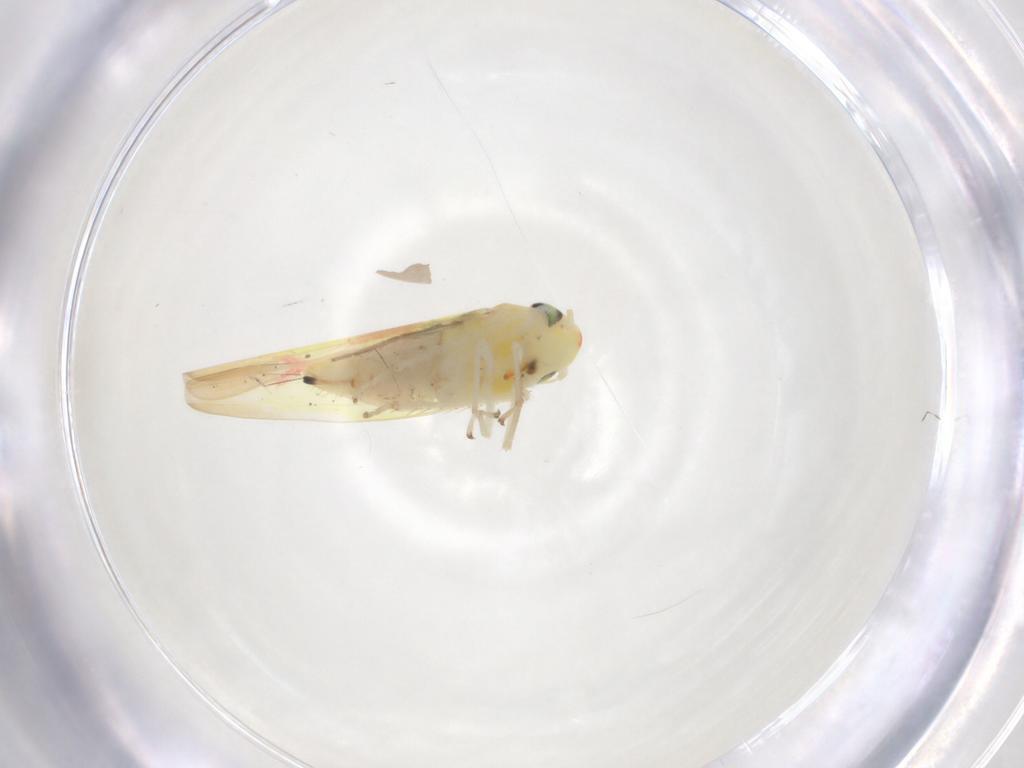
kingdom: Animalia
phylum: Arthropoda
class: Insecta
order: Hemiptera
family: Cicadellidae
